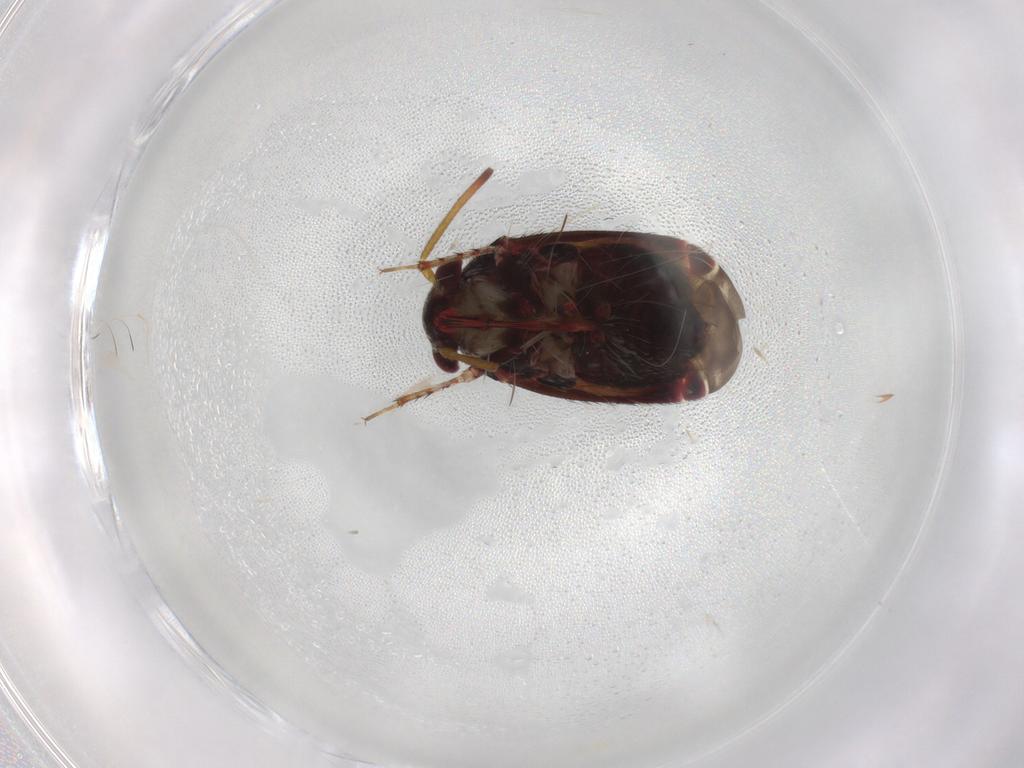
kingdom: Animalia
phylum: Arthropoda
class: Insecta
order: Hemiptera
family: Miridae
